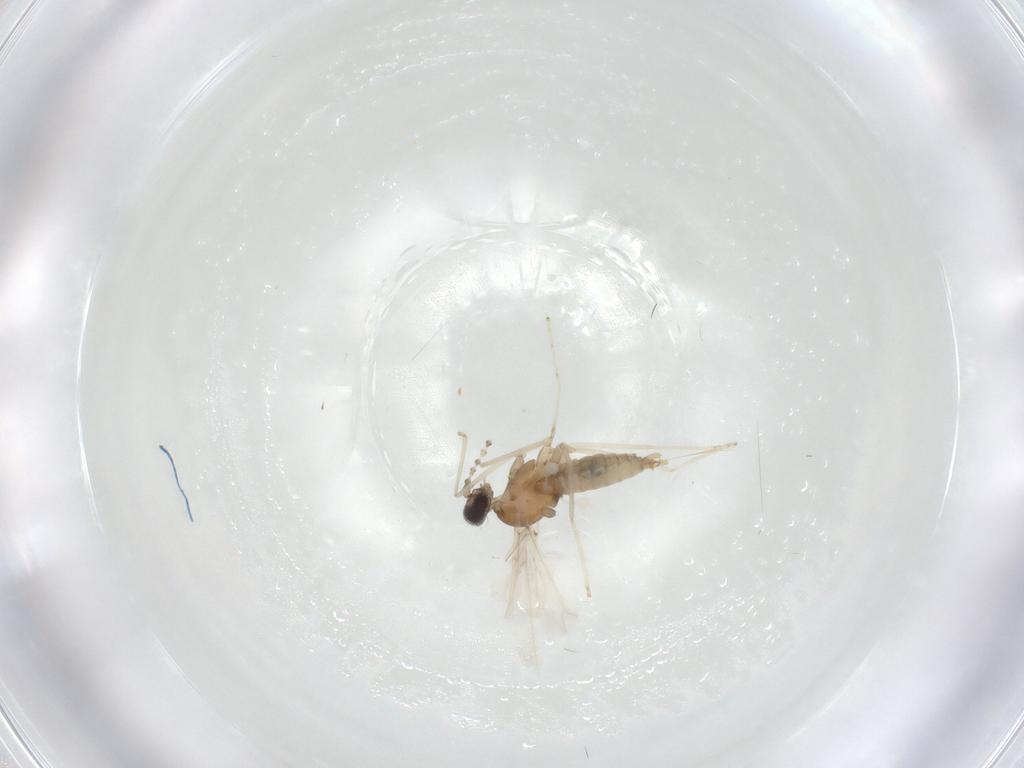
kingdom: Animalia
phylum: Arthropoda
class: Insecta
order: Diptera
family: Cecidomyiidae
